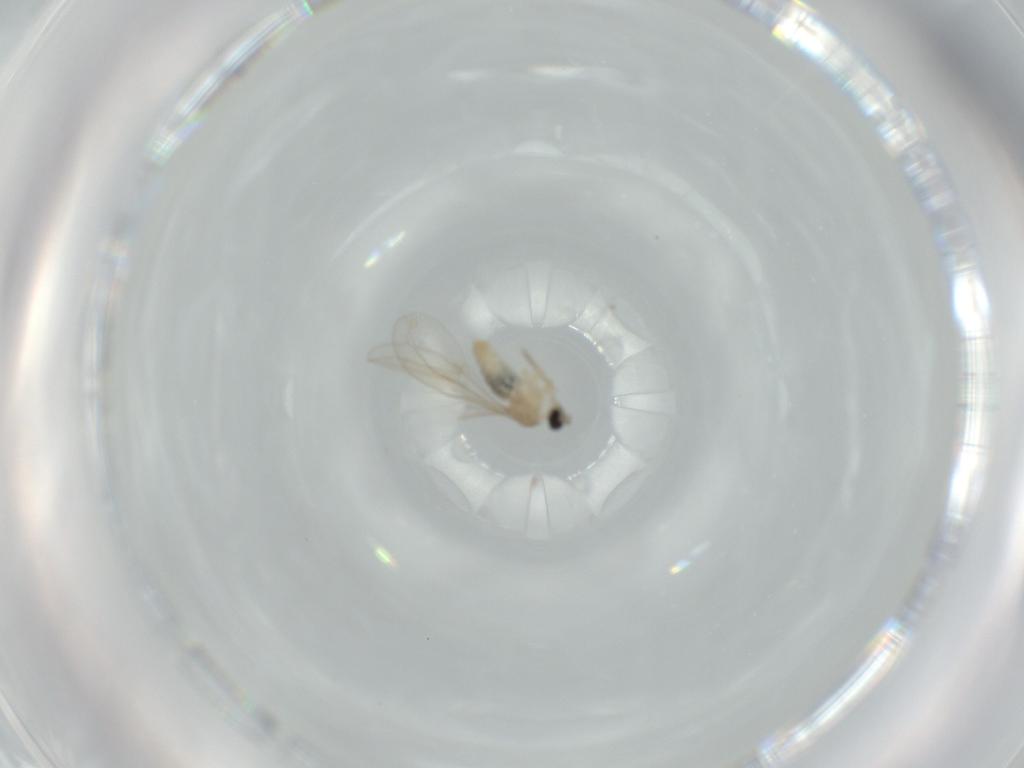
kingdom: Animalia
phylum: Arthropoda
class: Insecta
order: Diptera
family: Cecidomyiidae
